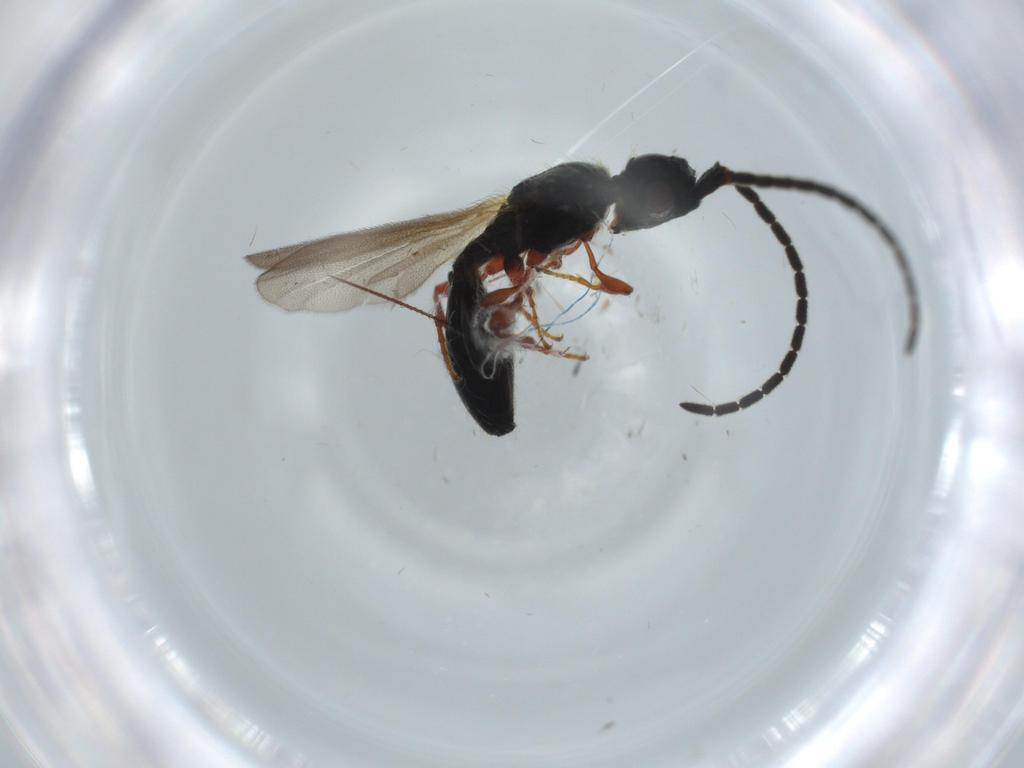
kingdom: Animalia
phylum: Arthropoda
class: Insecta
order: Hymenoptera
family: Diapriidae
